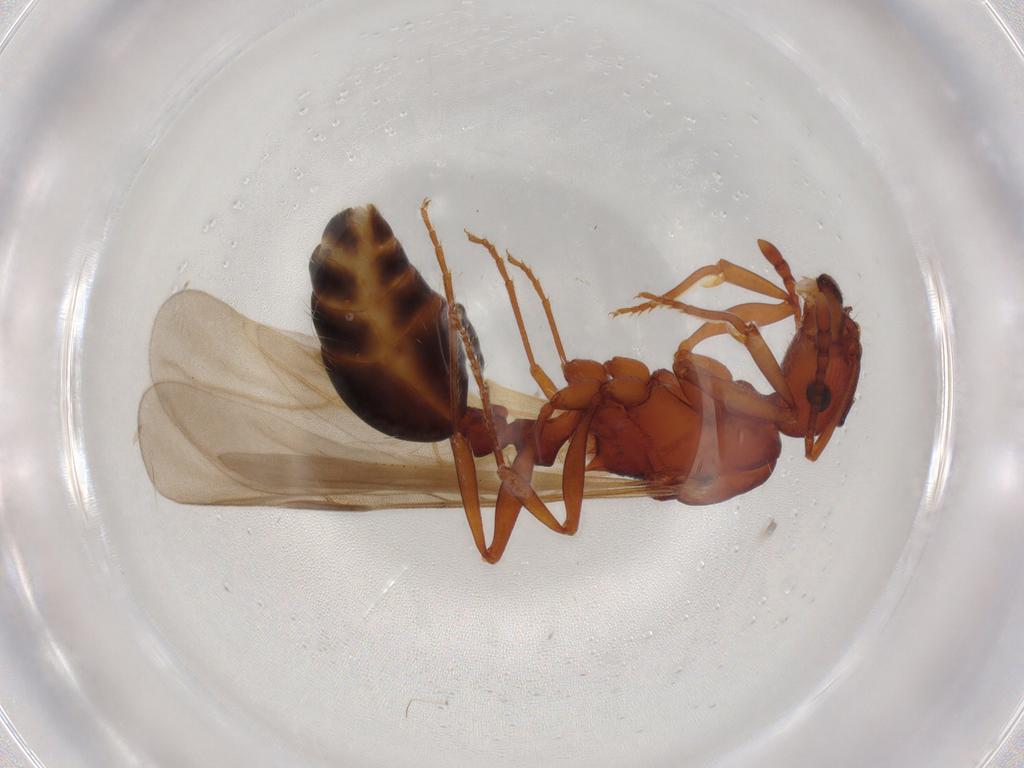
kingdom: Animalia
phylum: Arthropoda
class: Insecta
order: Hymenoptera
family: Formicidae
